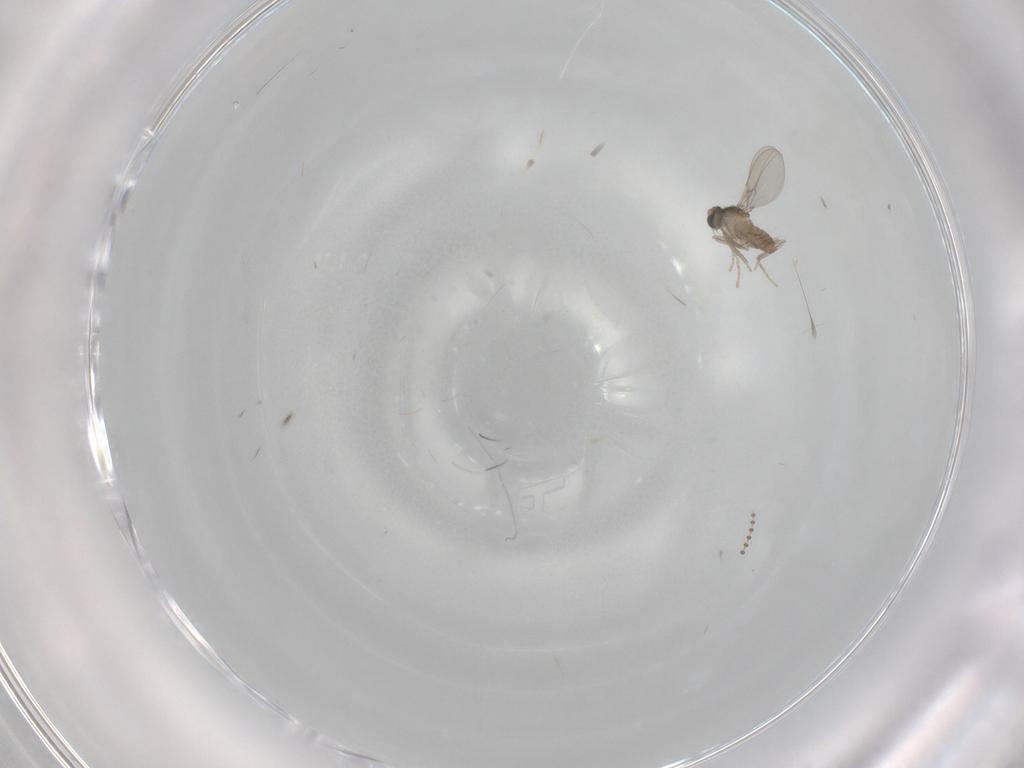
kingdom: Animalia
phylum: Arthropoda
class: Insecta
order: Diptera
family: Cecidomyiidae
